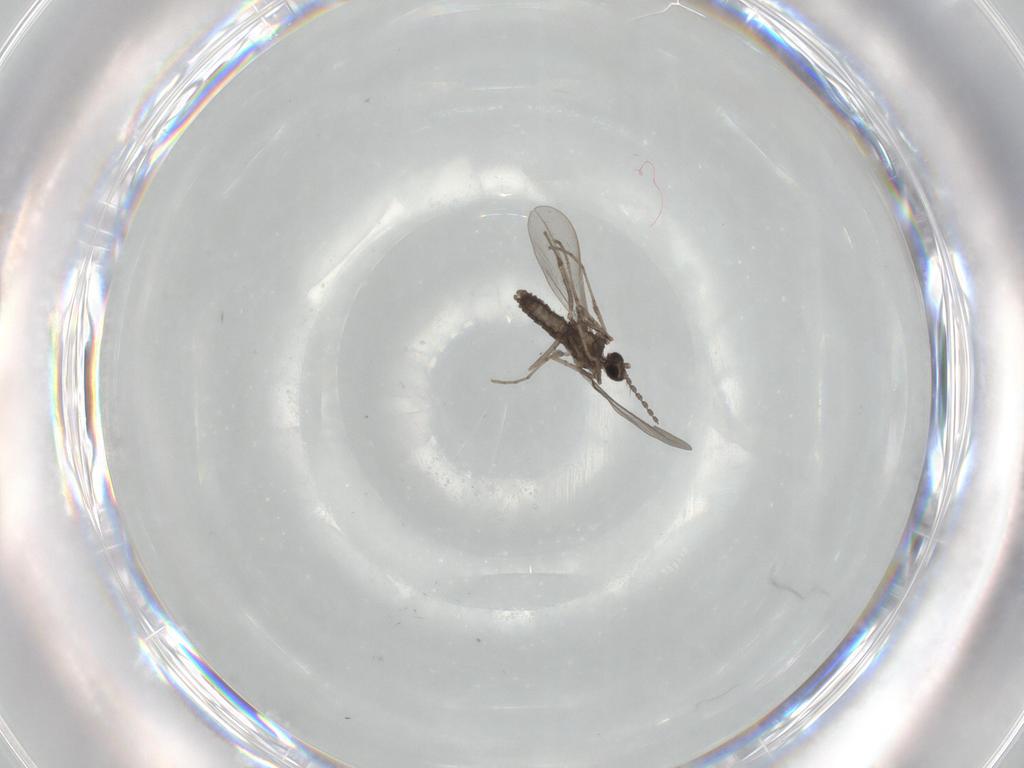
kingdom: Animalia
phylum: Arthropoda
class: Insecta
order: Diptera
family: Cecidomyiidae
